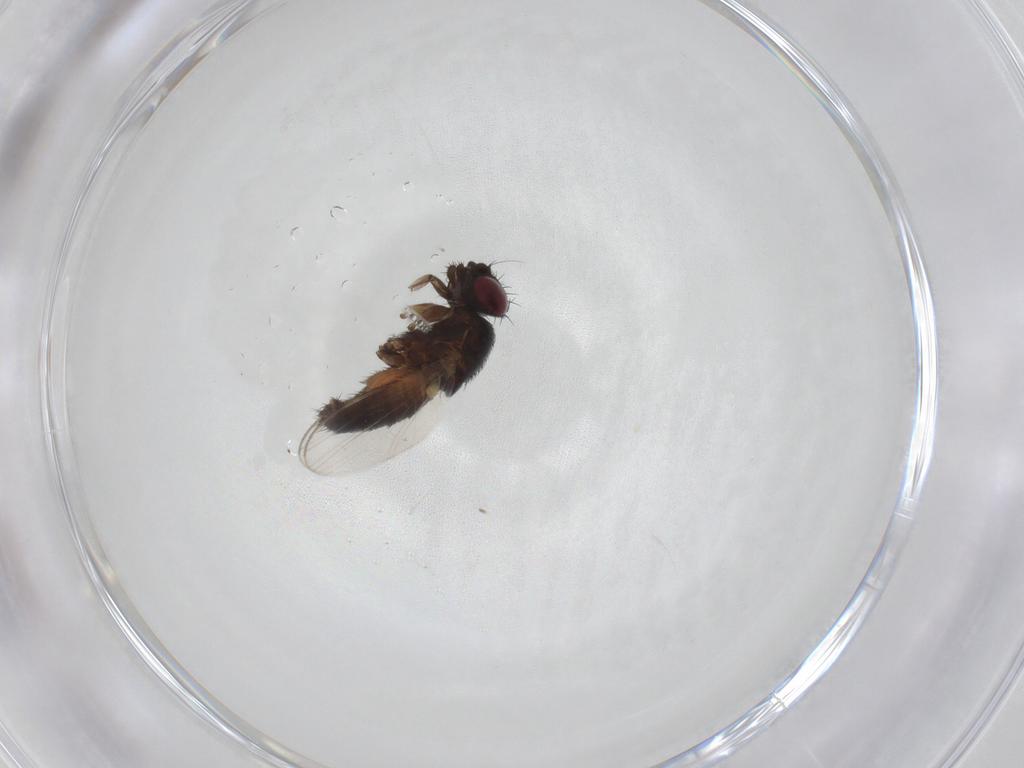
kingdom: Animalia
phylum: Arthropoda
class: Insecta
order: Diptera
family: Milichiidae
